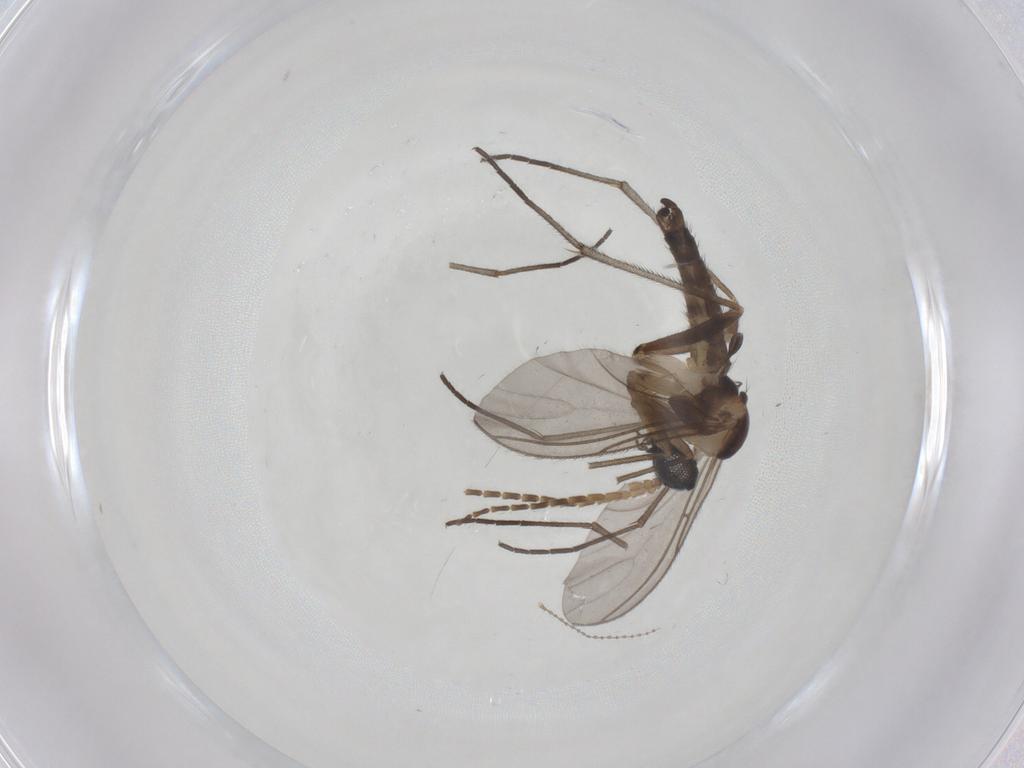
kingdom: Animalia
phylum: Arthropoda
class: Insecta
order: Diptera
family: Sciaridae
